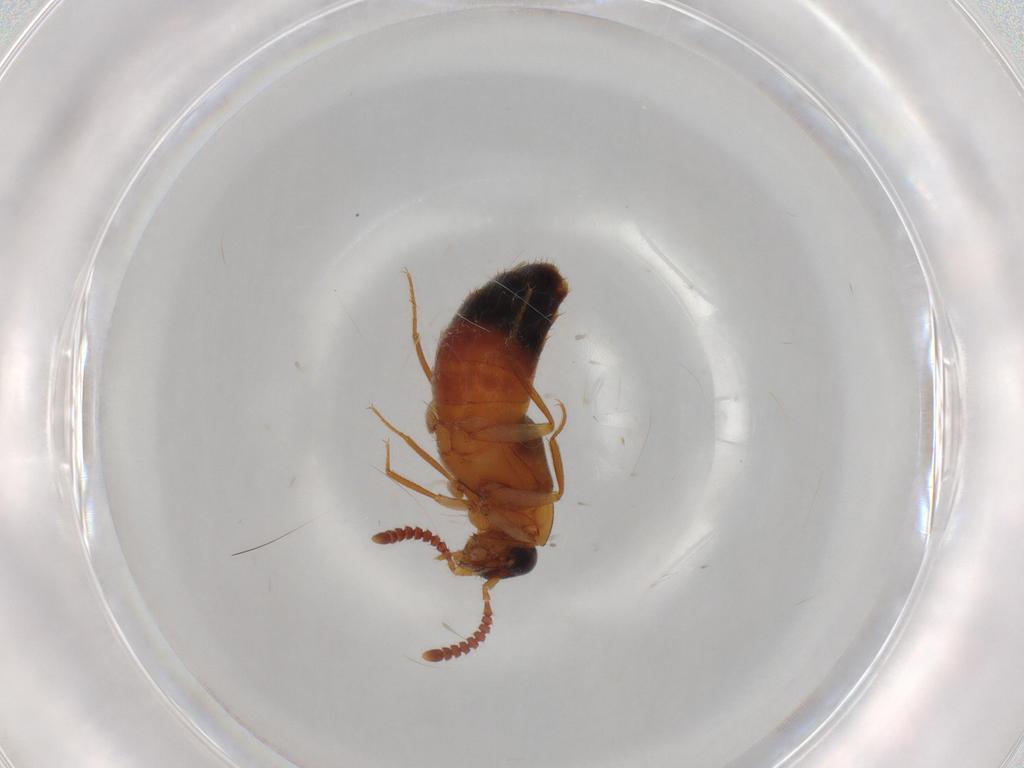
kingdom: Animalia
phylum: Arthropoda
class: Insecta
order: Coleoptera
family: Staphylinidae
